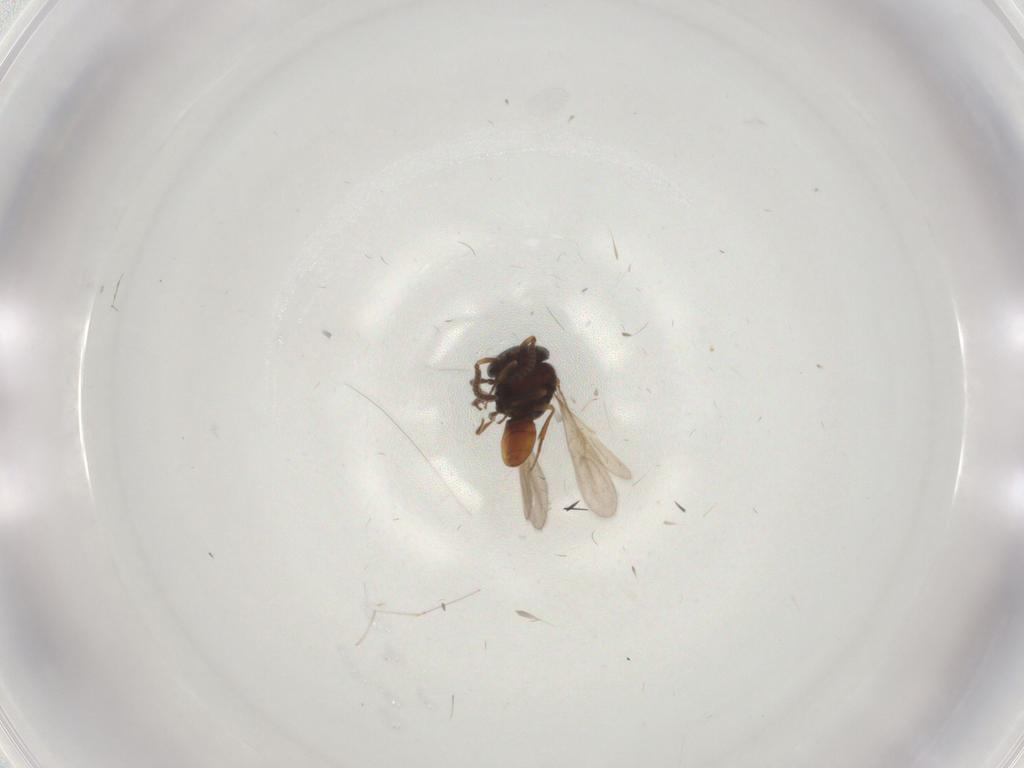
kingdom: Animalia
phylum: Arthropoda
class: Insecta
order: Hymenoptera
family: Scelionidae
